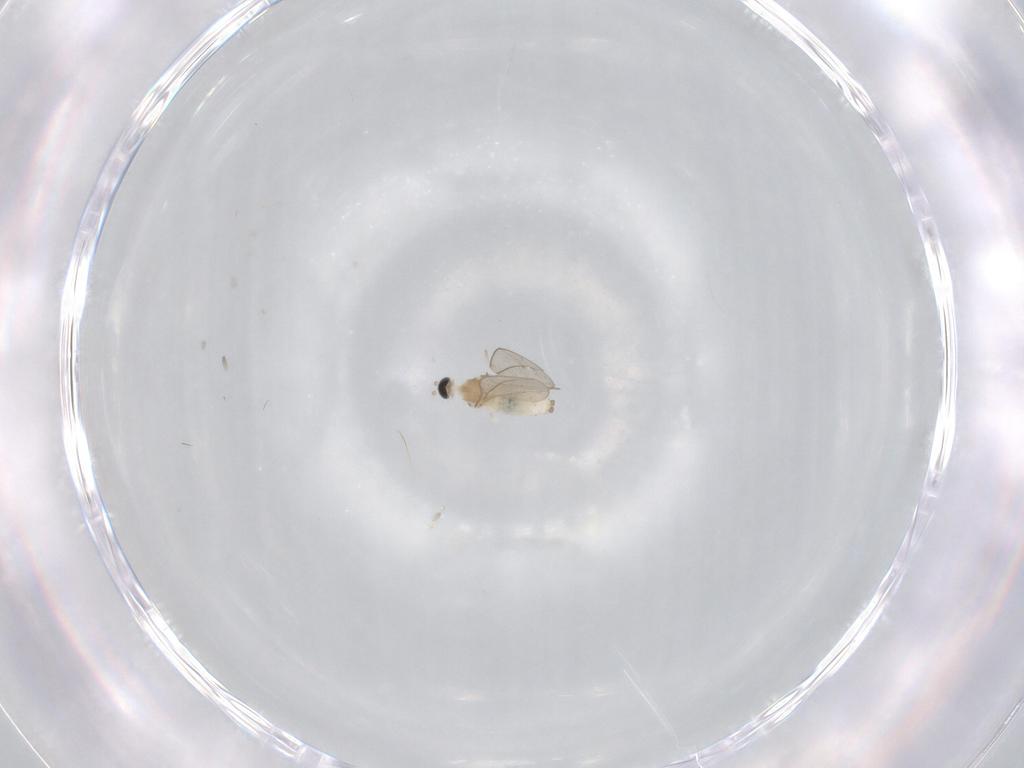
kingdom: Animalia
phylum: Arthropoda
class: Insecta
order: Diptera
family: Cecidomyiidae
